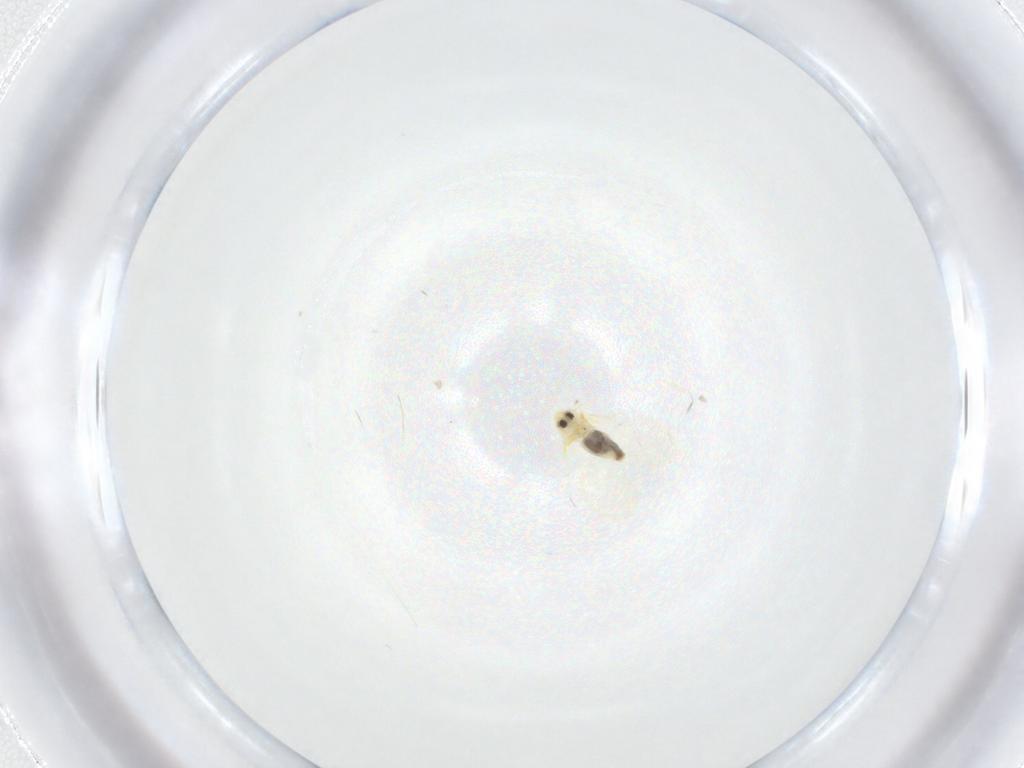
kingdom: Animalia
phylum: Arthropoda
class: Insecta
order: Hemiptera
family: Aleyrodidae
